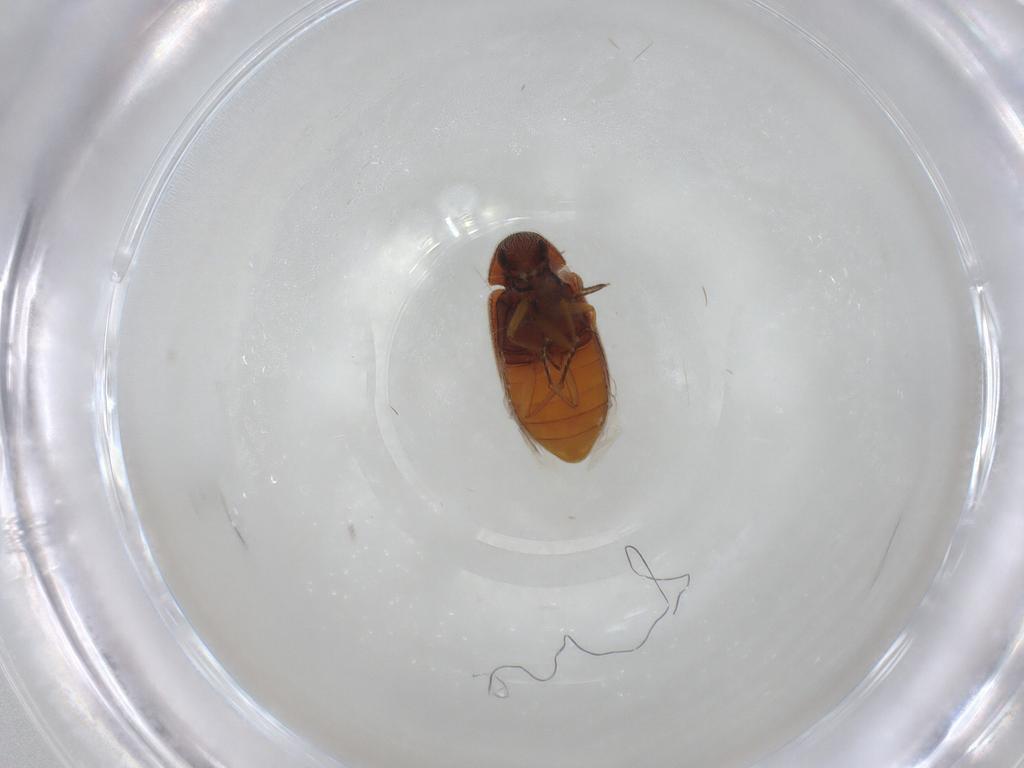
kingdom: Animalia
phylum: Arthropoda
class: Insecta
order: Coleoptera
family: Rhadalidae
